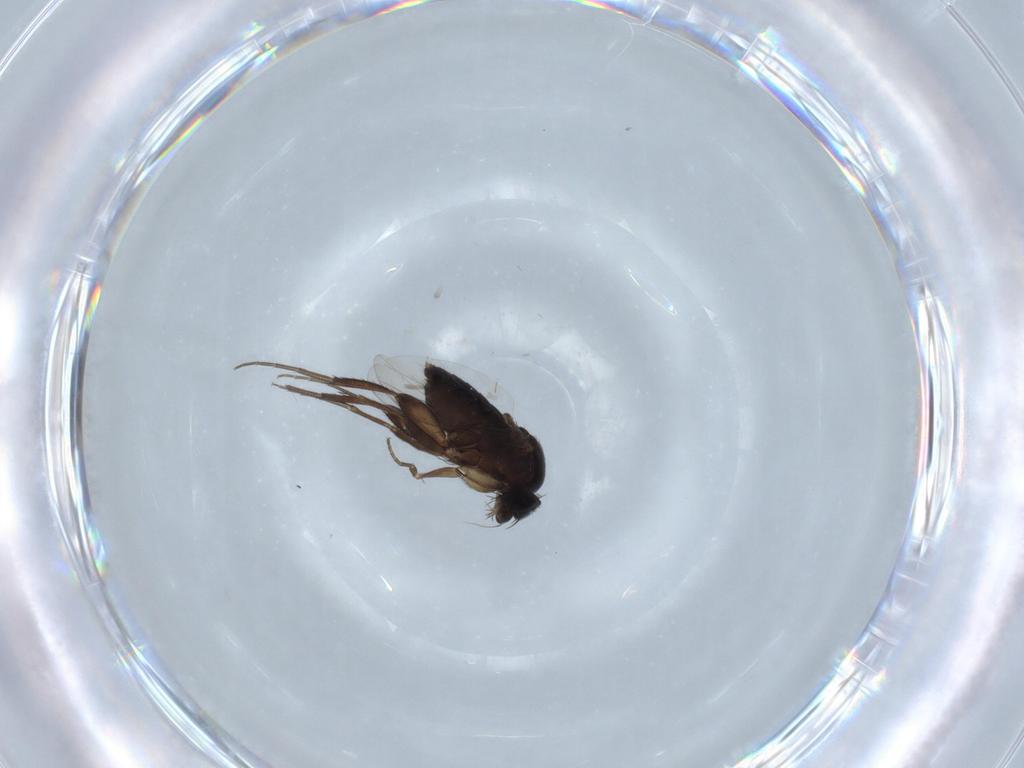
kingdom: Animalia
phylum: Arthropoda
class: Insecta
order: Diptera
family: Phoridae
